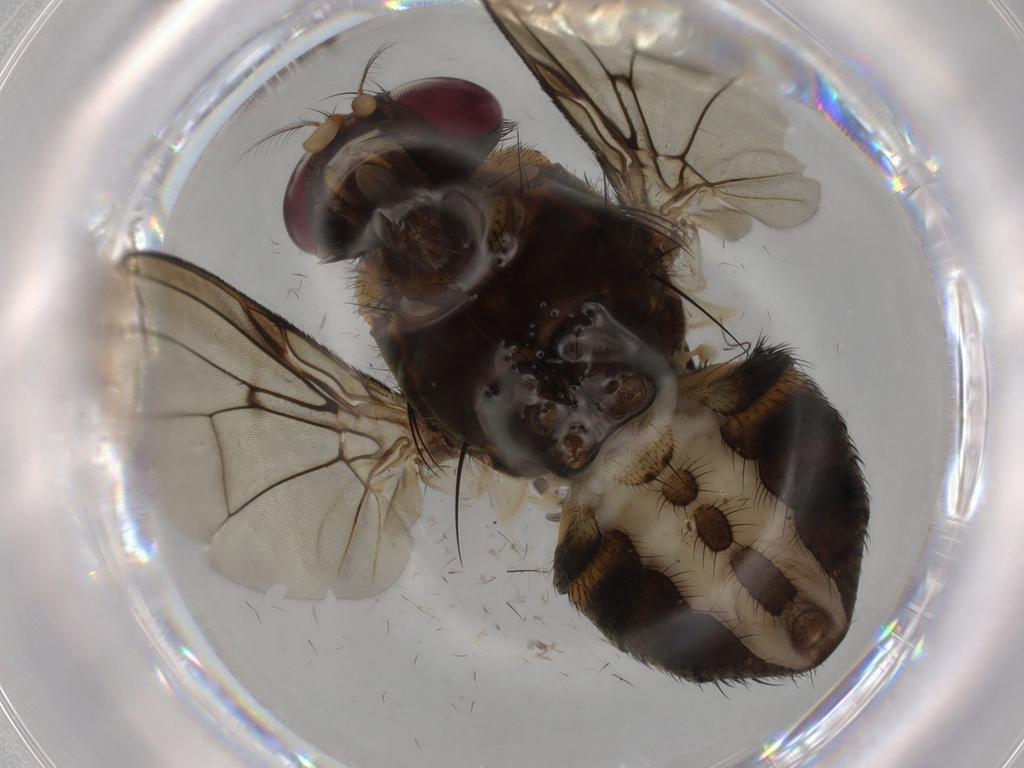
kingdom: Animalia
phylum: Arthropoda
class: Insecta
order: Diptera
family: Muscidae
